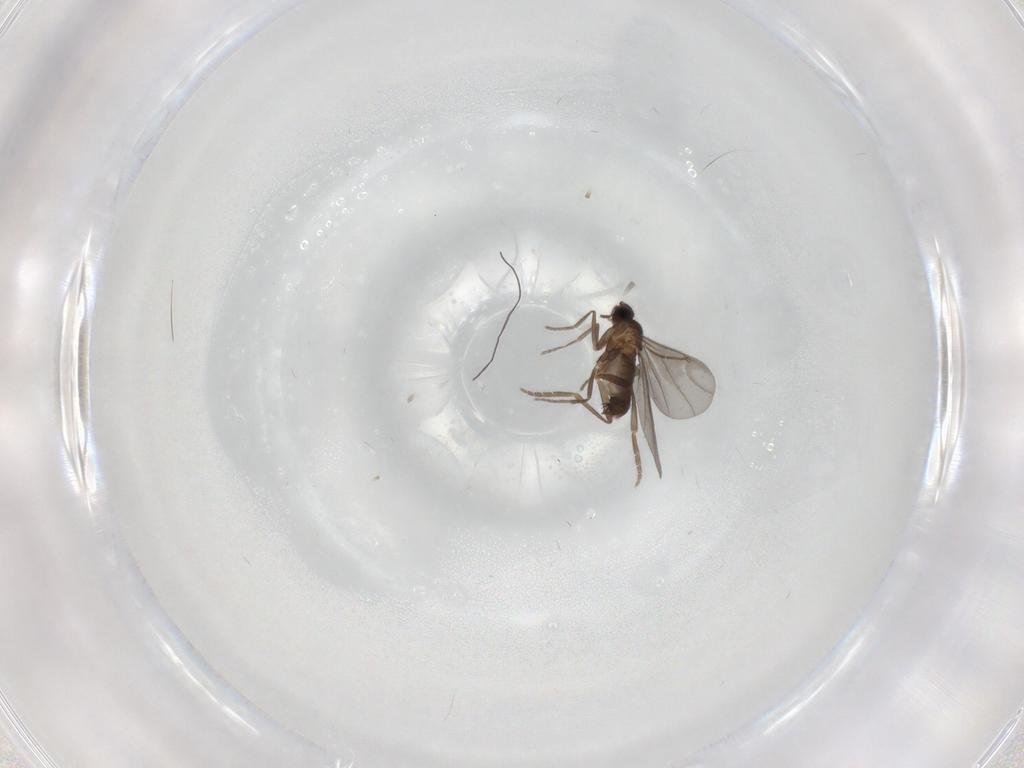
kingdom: Animalia
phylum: Arthropoda
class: Insecta
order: Diptera
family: Phoridae
